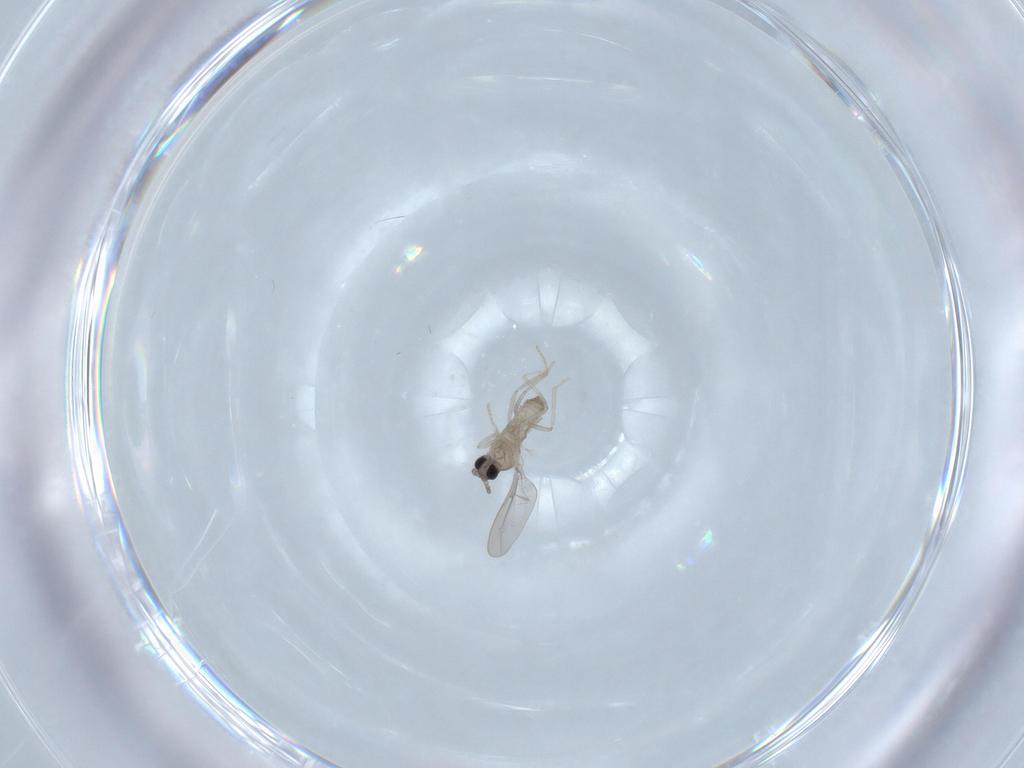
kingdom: Animalia
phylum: Arthropoda
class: Insecta
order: Diptera
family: Cecidomyiidae
